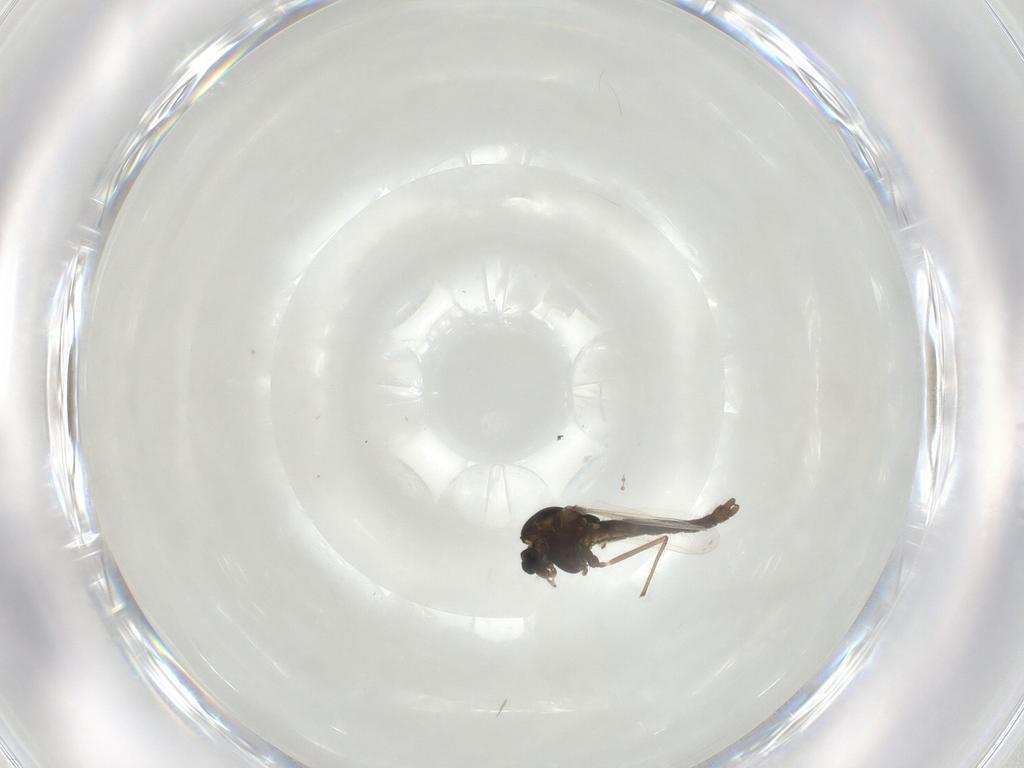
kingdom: Animalia
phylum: Arthropoda
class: Insecta
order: Diptera
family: Chironomidae
